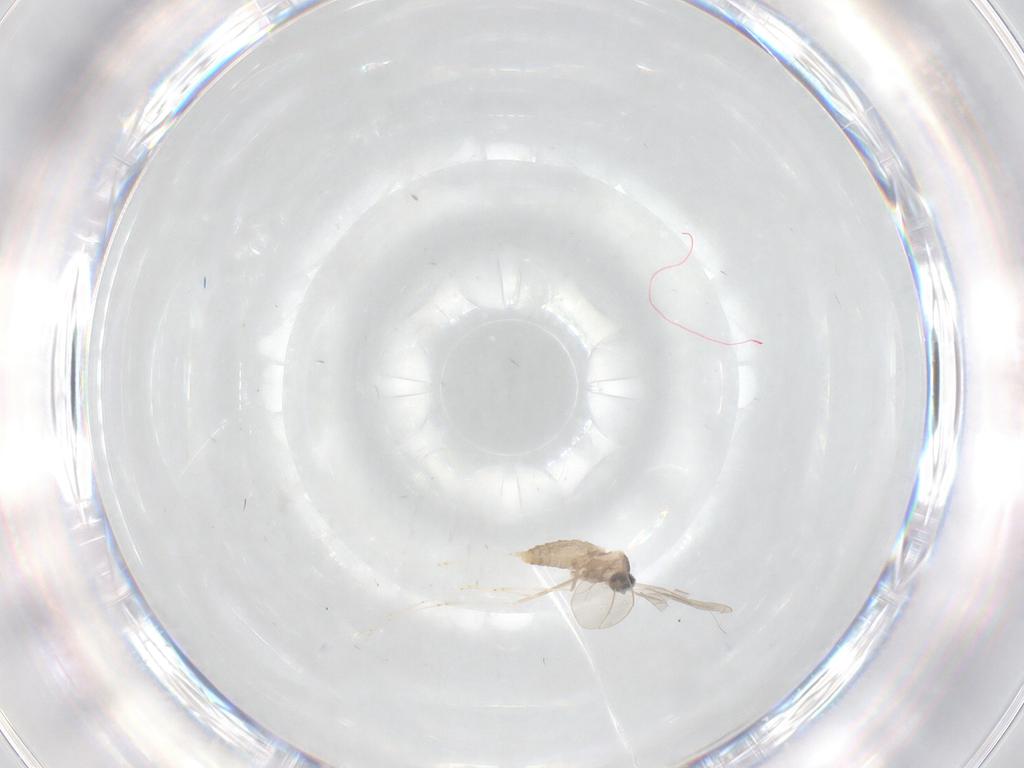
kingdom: Animalia
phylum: Arthropoda
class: Insecta
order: Diptera
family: Cecidomyiidae
